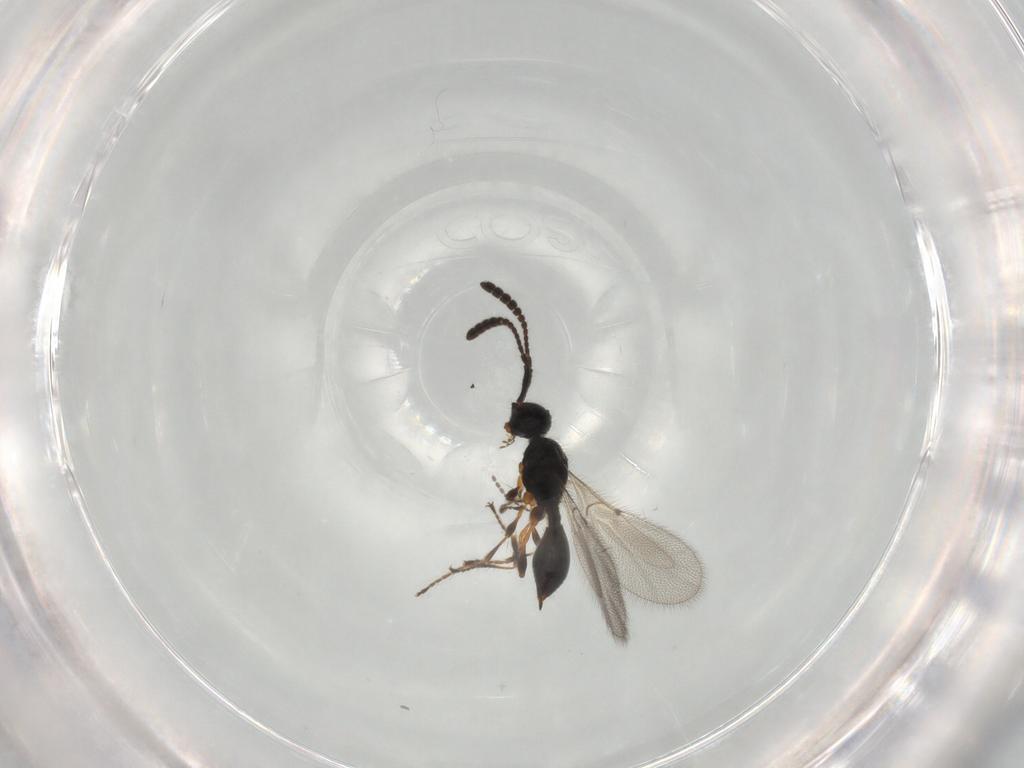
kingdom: Animalia
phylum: Arthropoda
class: Insecta
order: Hymenoptera
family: Diapriidae
